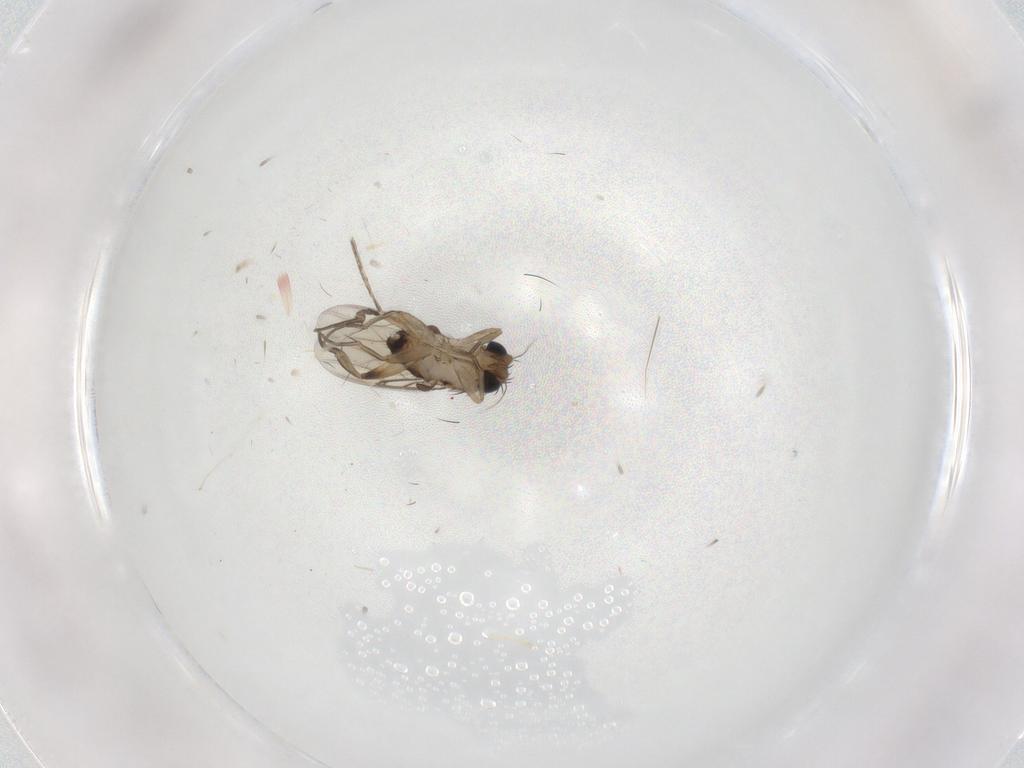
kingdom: Animalia
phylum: Arthropoda
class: Insecta
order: Diptera
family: Phoridae
